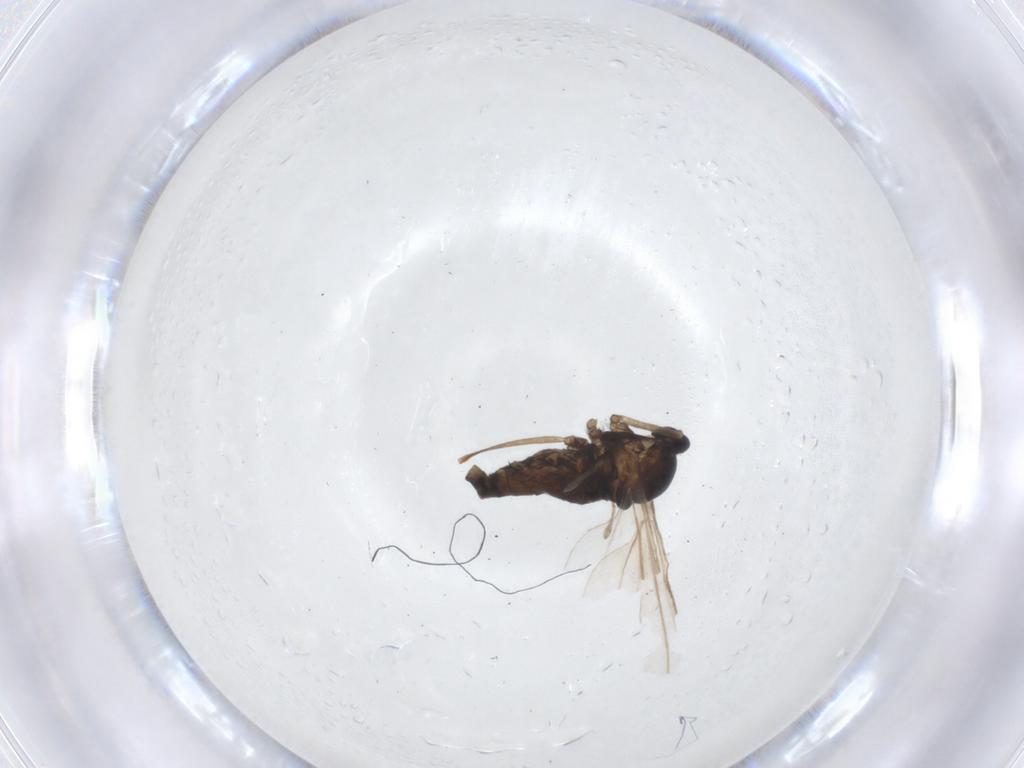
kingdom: Animalia
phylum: Arthropoda
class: Insecta
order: Diptera
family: Cecidomyiidae
